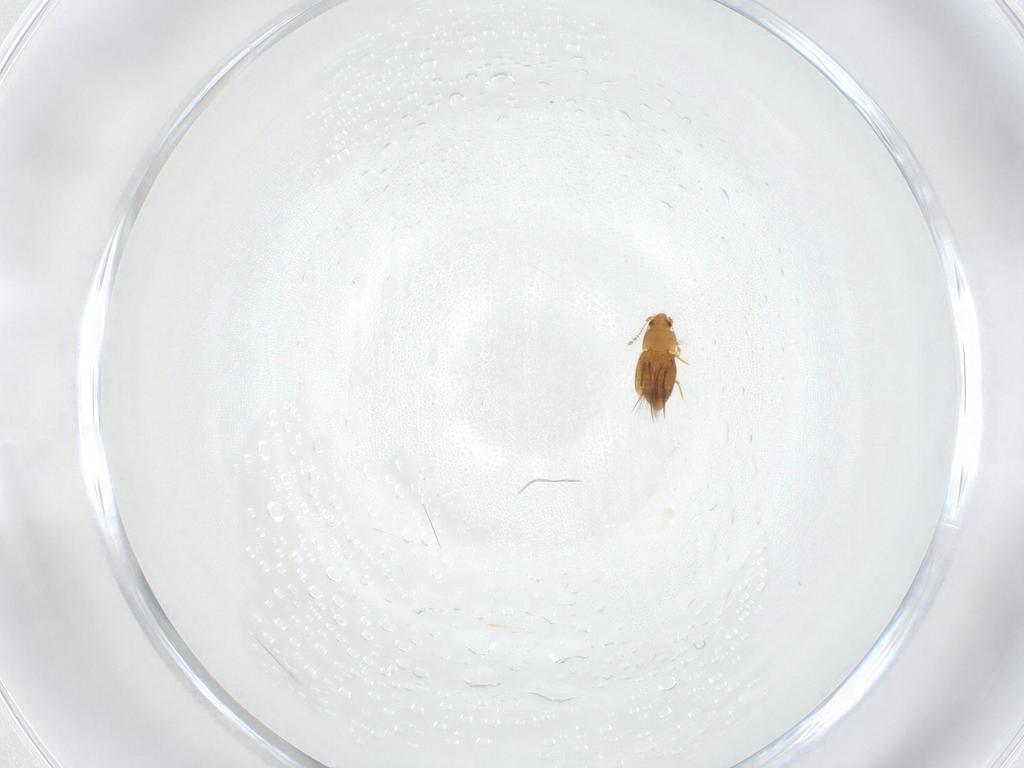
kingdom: Animalia
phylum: Arthropoda
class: Insecta
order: Coleoptera
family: Ptiliidae
